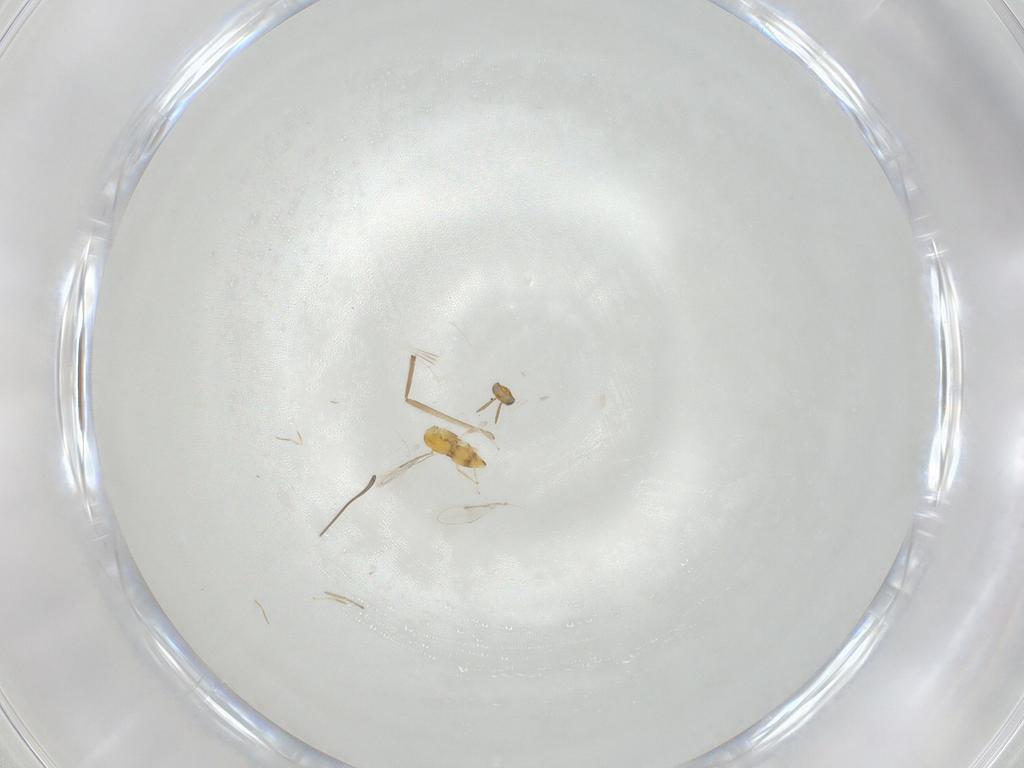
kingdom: Animalia
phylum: Arthropoda
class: Insecta
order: Hymenoptera
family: Aphelinidae
